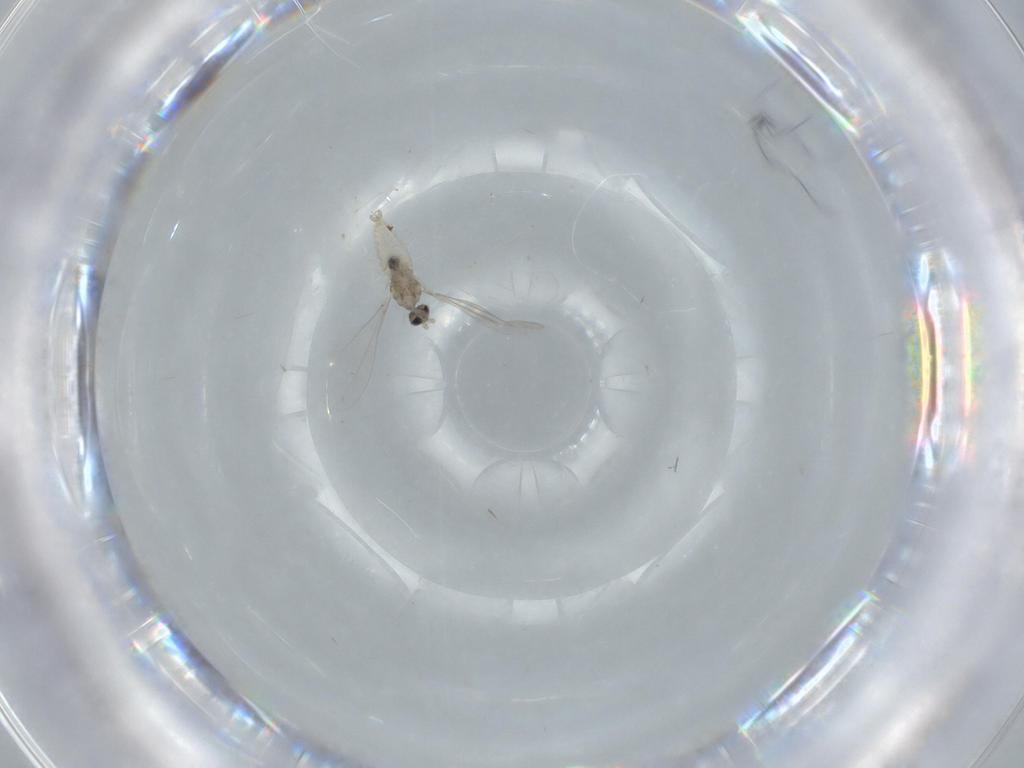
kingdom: Animalia
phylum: Arthropoda
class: Insecta
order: Diptera
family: Cecidomyiidae
